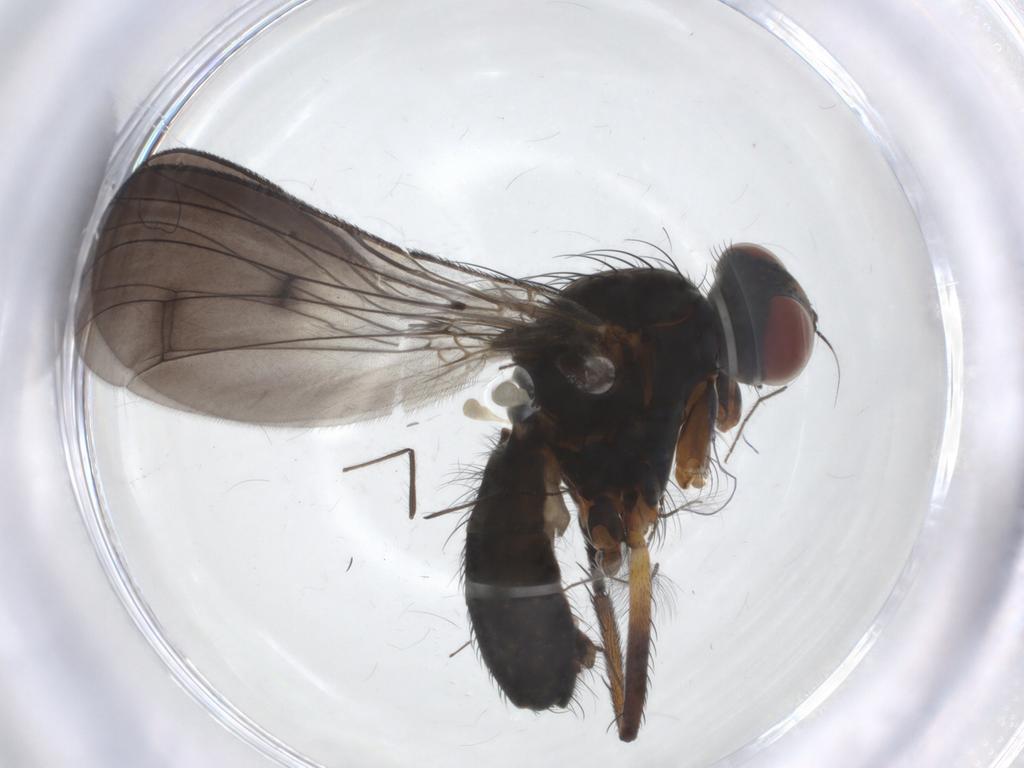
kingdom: Animalia
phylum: Arthropoda
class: Insecta
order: Diptera
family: Anthomyiidae
